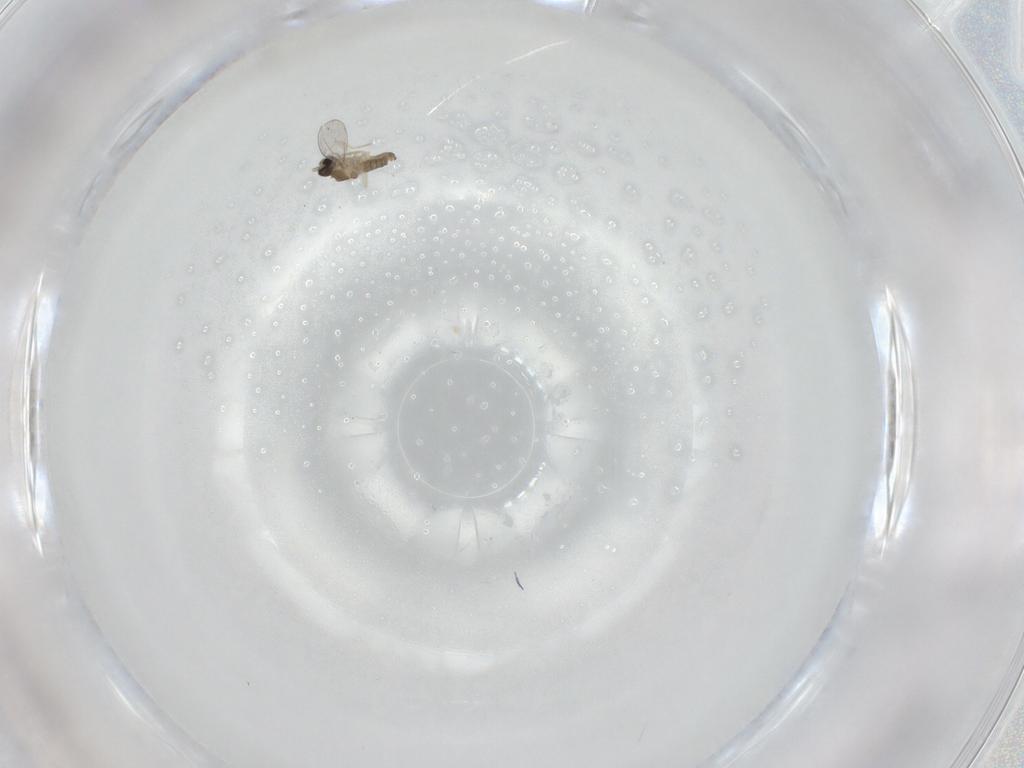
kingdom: Animalia
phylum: Arthropoda
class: Insecta
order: Diptera
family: Cecidomyiidae
